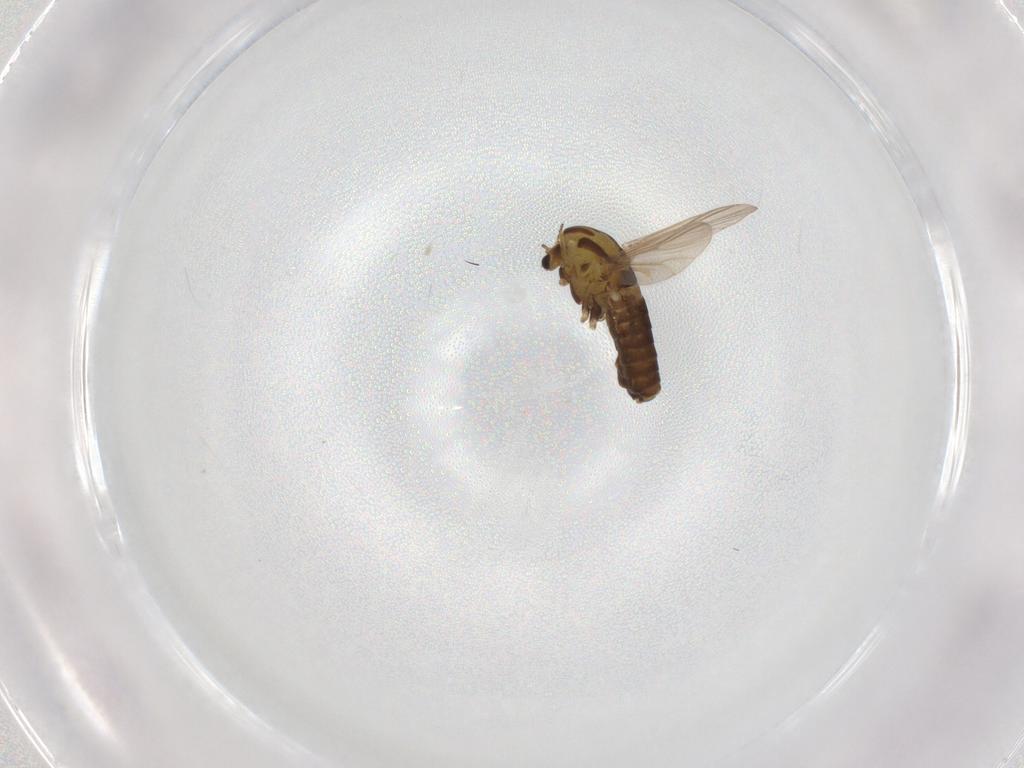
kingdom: Animalia
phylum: Arthropoda
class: Insecta
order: Diptera
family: Chironomidae
